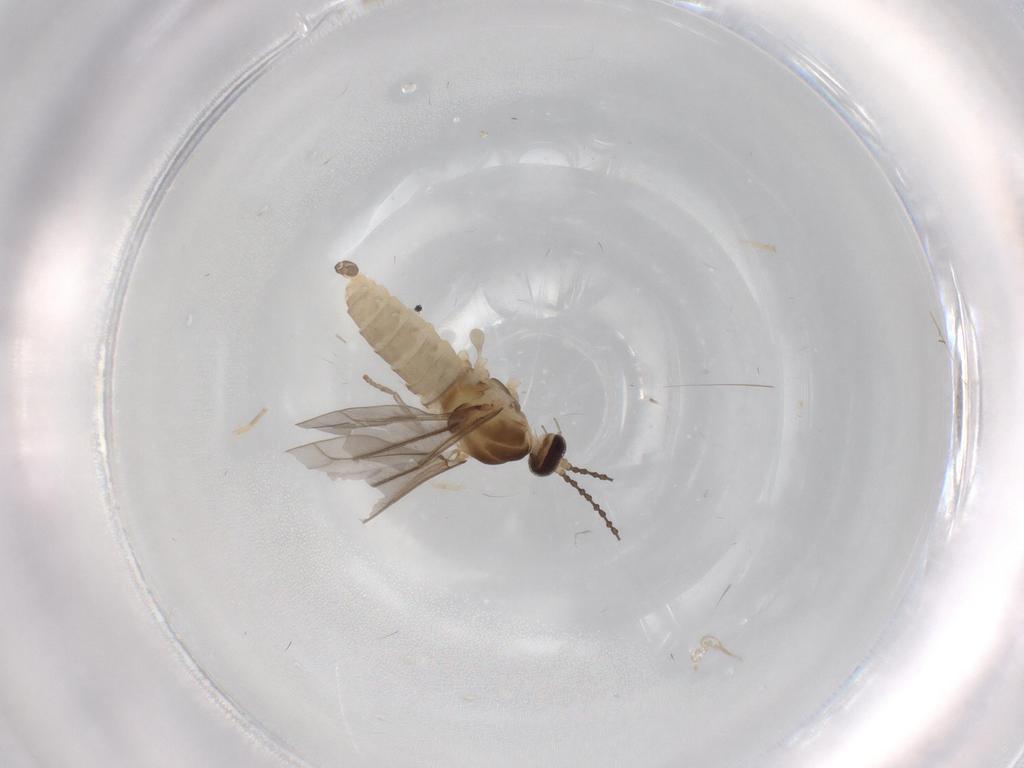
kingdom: Animalia
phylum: Arthropoda
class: Insecta
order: Diptera
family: Cecidomyiidae
